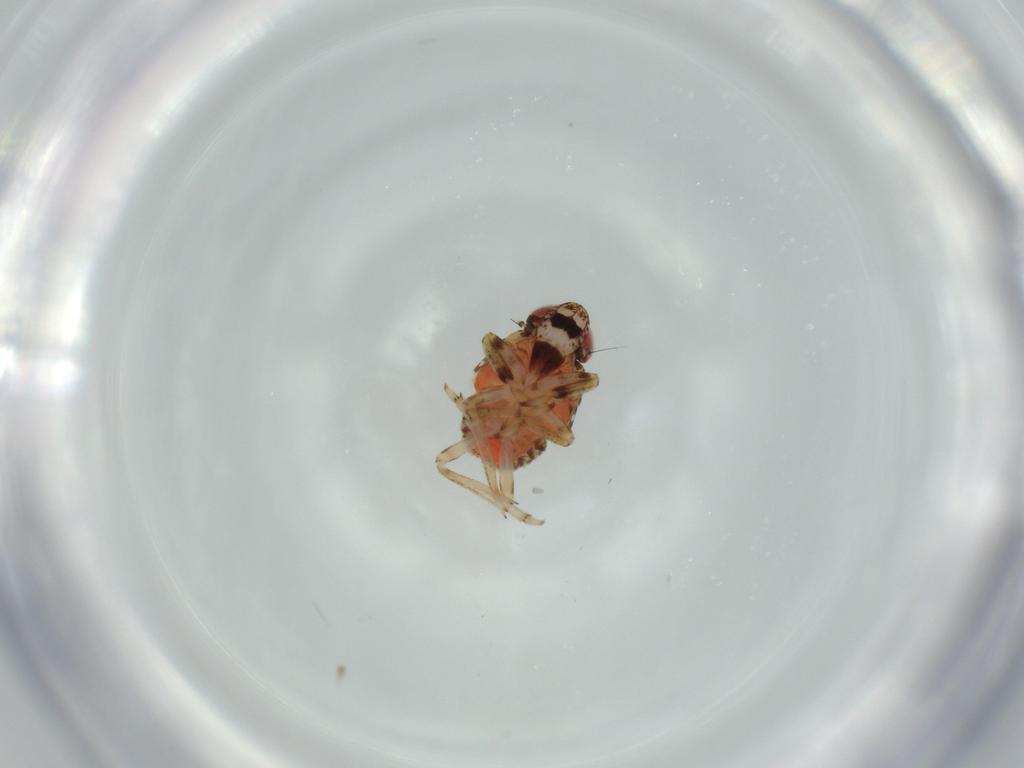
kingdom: Animalia
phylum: Arthropoda
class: Insecta
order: Hemiptera
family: Issidae
